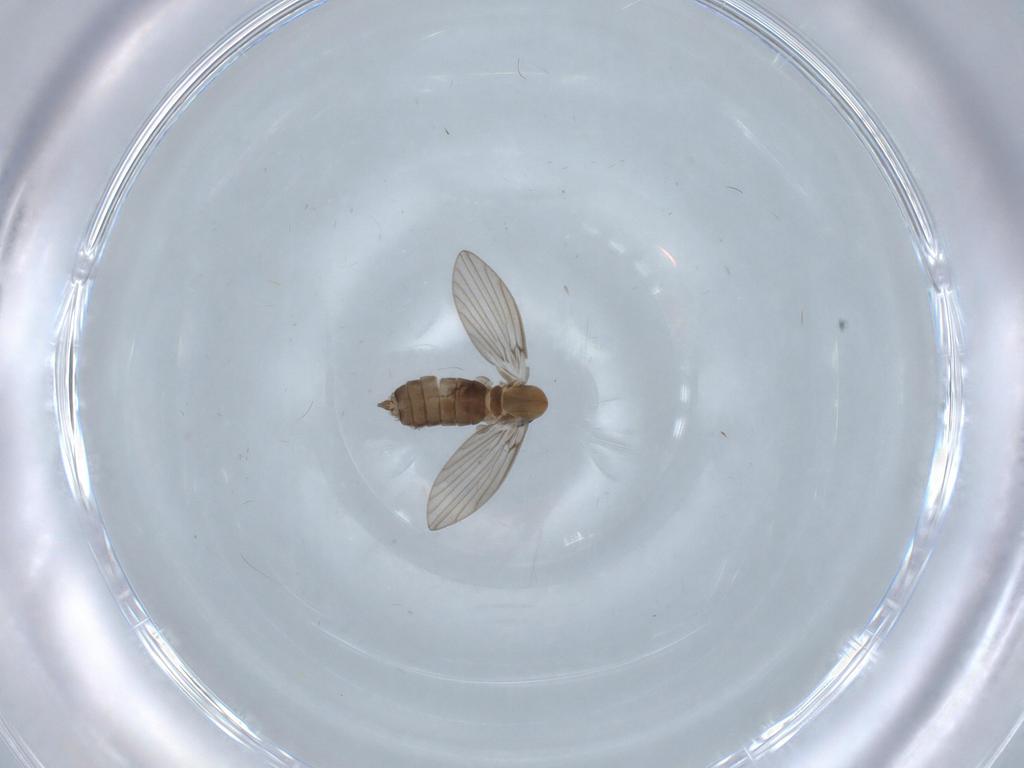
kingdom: Animalia
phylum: Arthropoda
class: Insecta
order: Diptera
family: Psychodidae
